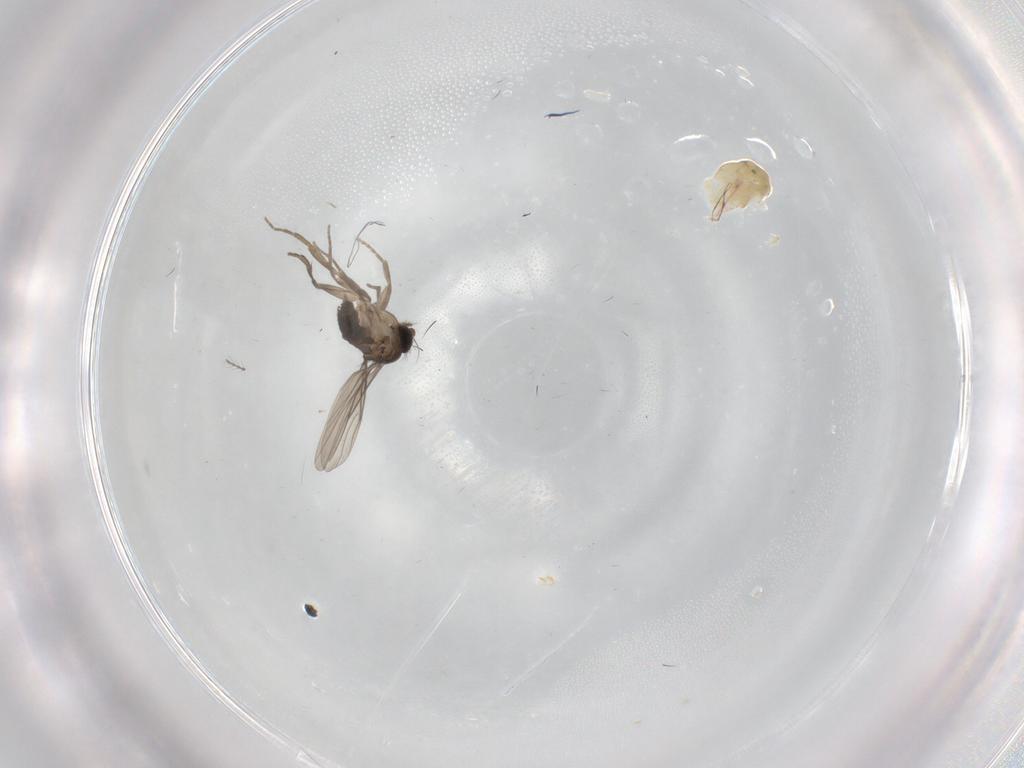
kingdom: Animalia
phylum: Arthropoda
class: Insecta
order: Diptera
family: Phoridae
